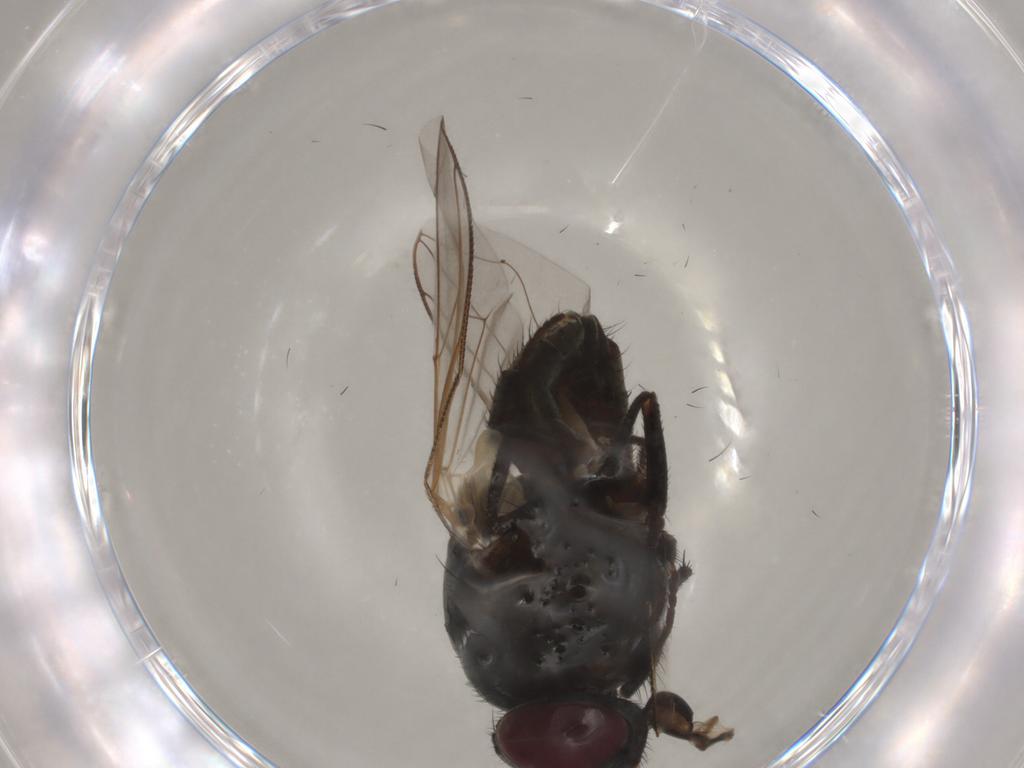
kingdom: Animalia
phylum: Arthropoda
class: Insecta
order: Diptera
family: Muscidae
